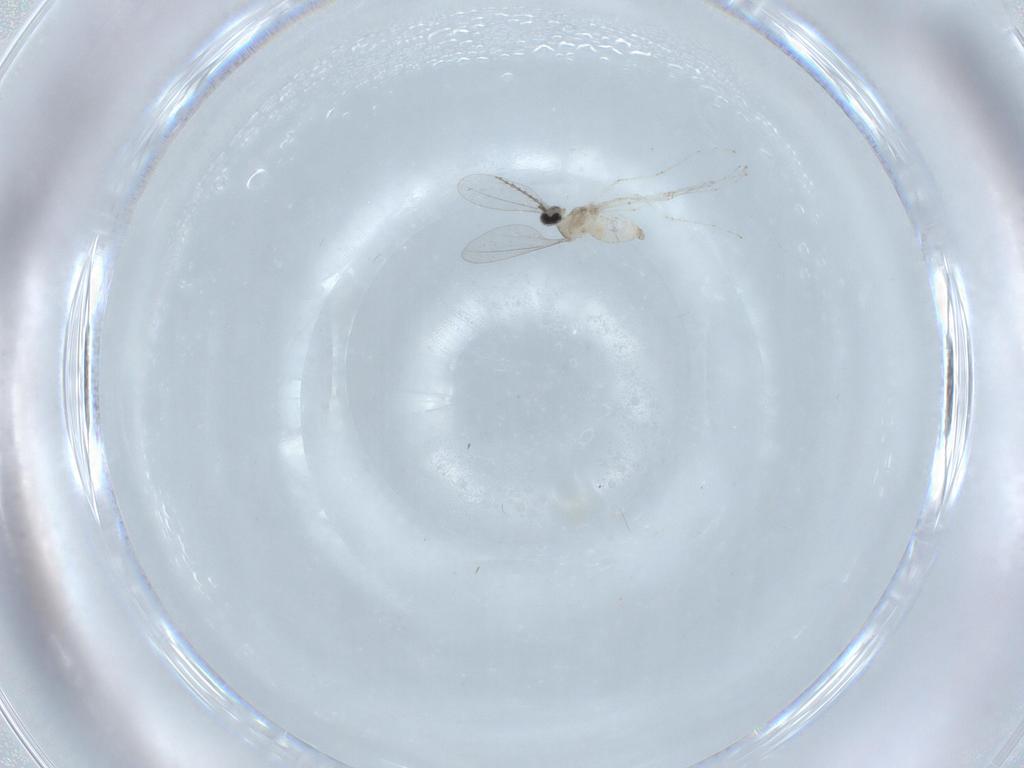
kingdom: Animalia
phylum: Arthropoda
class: Insecta
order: Diptera
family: Cecidomyiidae
